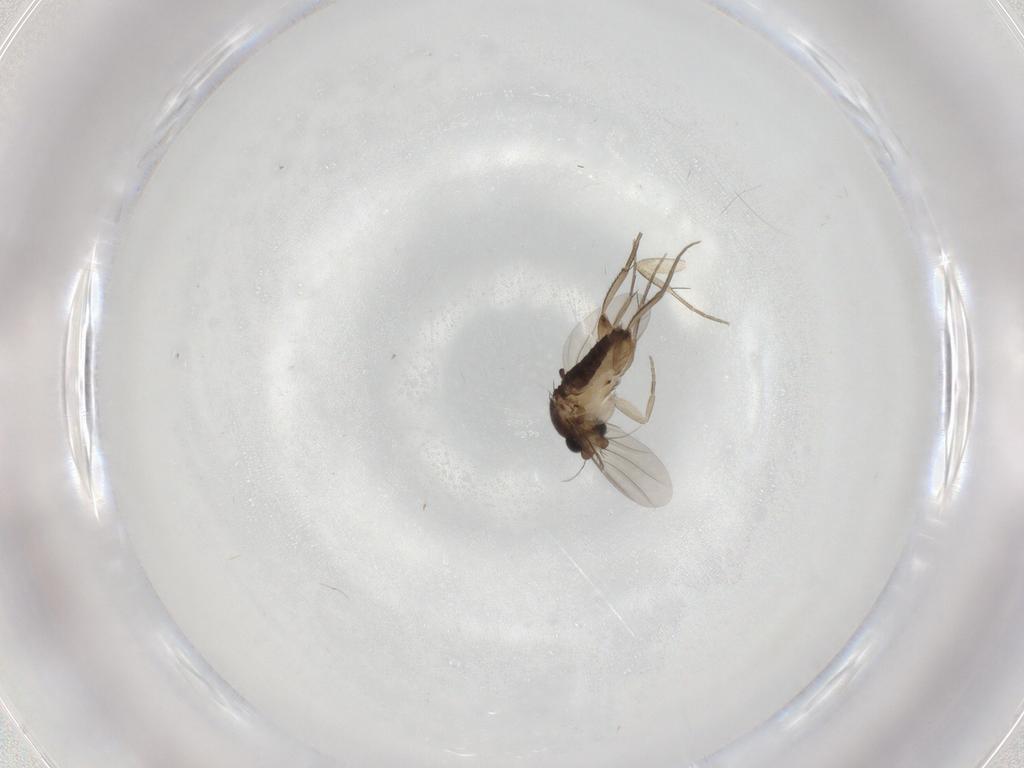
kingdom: Animalia
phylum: Arthropoda
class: Insecta
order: Diptera
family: Phoridae
